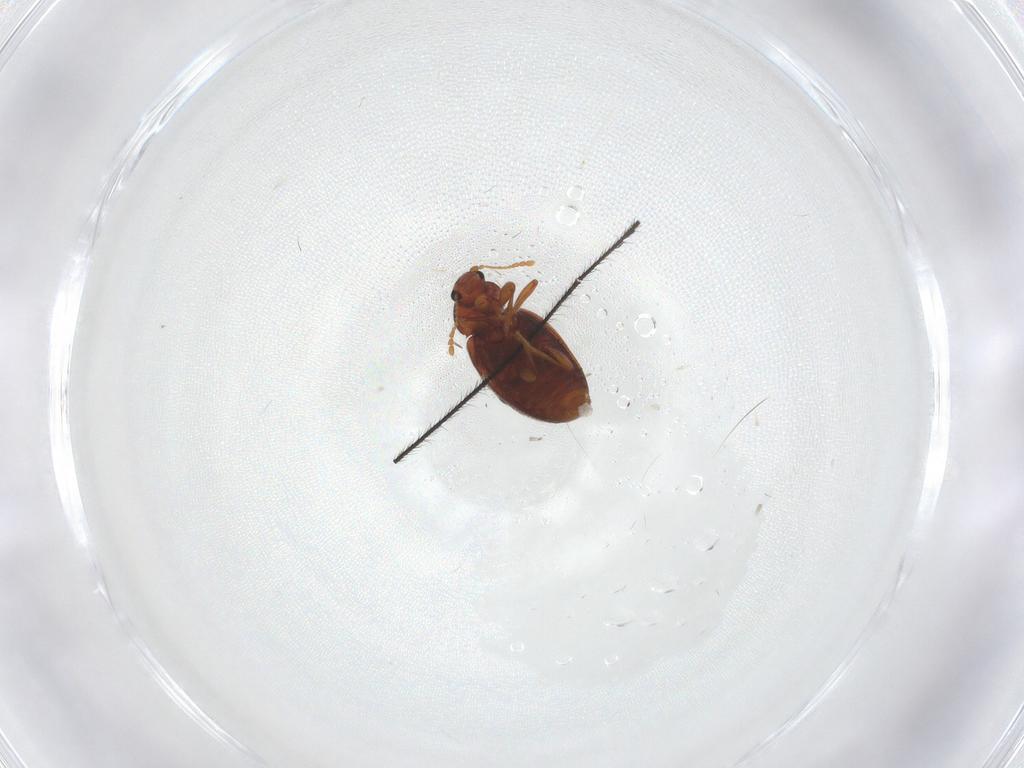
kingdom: Animalia
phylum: Arthropoda
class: Insecta
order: Coleoptera
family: Latridiidae
